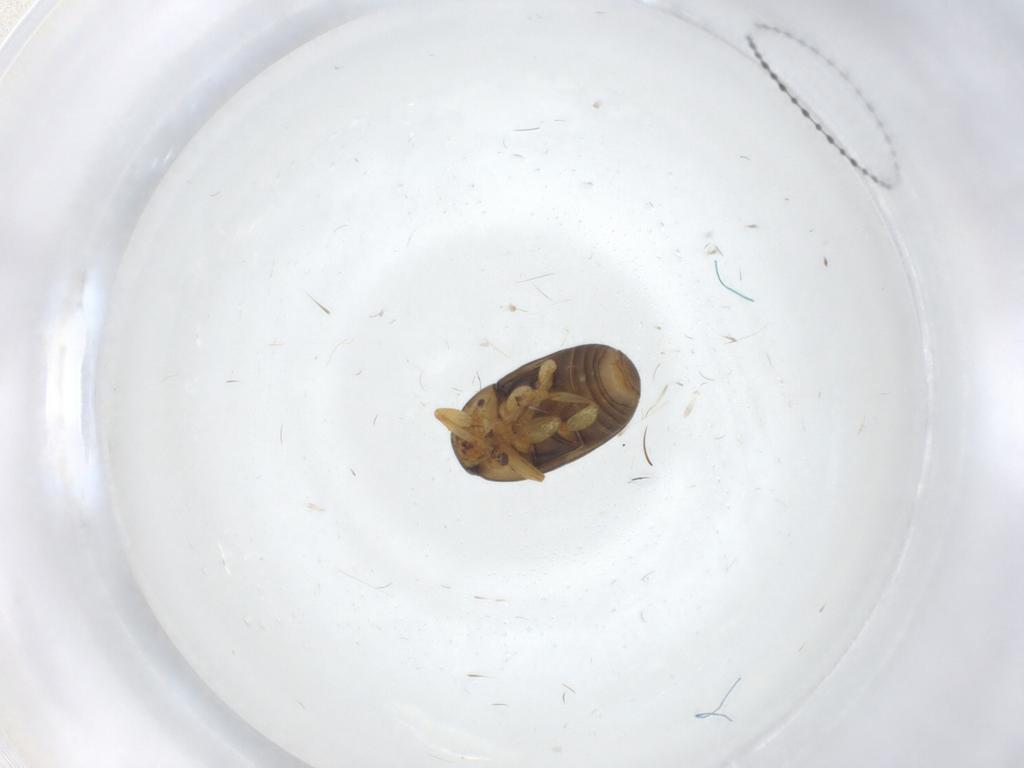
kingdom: Animalia
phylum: Arthropoda
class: Insecta
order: Coleoptera
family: Chrysomelidae
